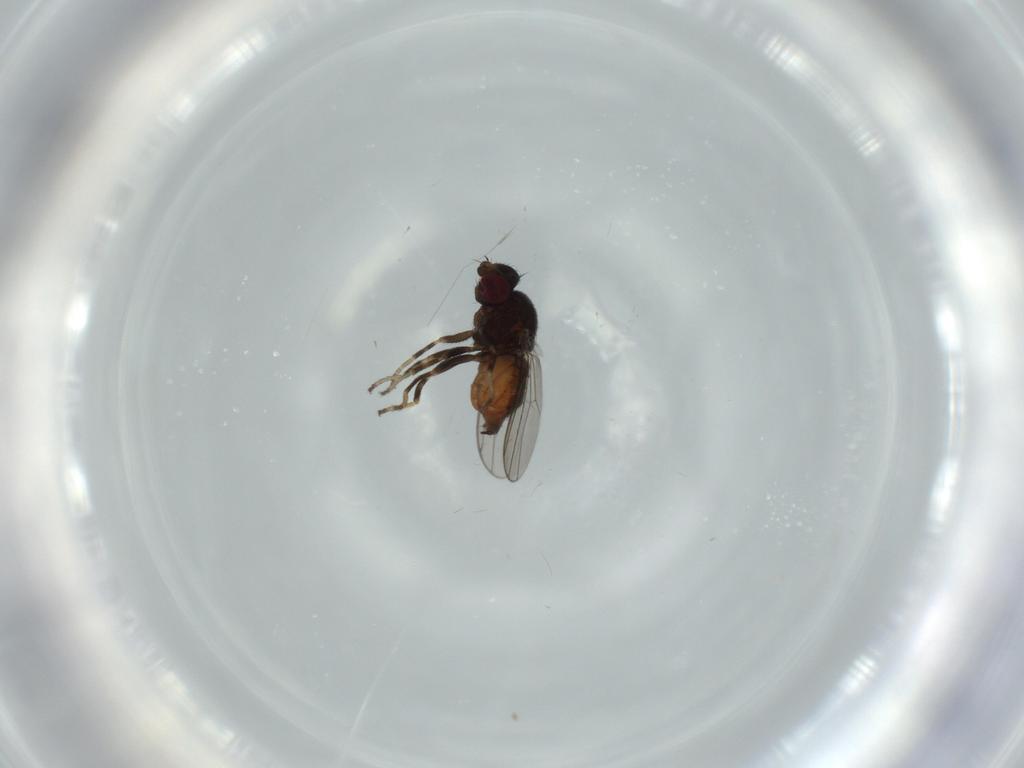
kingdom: Animalia
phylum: Arthropoda
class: Insecta
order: Diptera
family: Chloropidae
